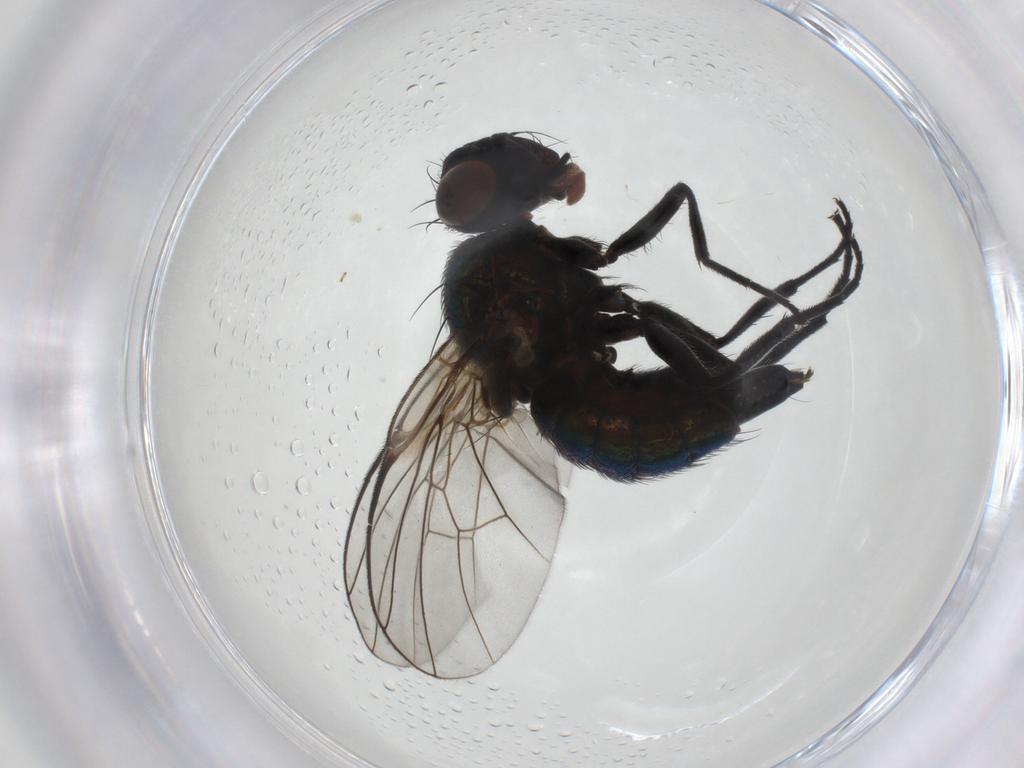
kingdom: Animalia
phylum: Arthropoda
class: Insecta
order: Diptera
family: Tephritidae
